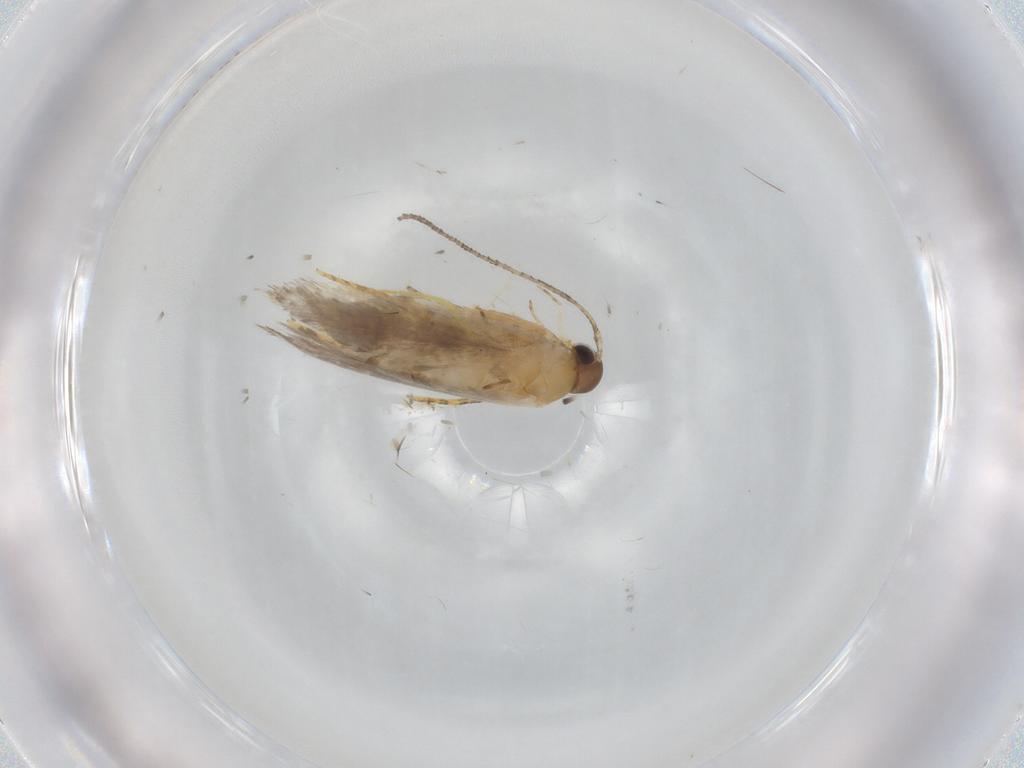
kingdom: Animalia
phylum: Arthropoda
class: Insecta
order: Lepidoptera
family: Autostichidae
